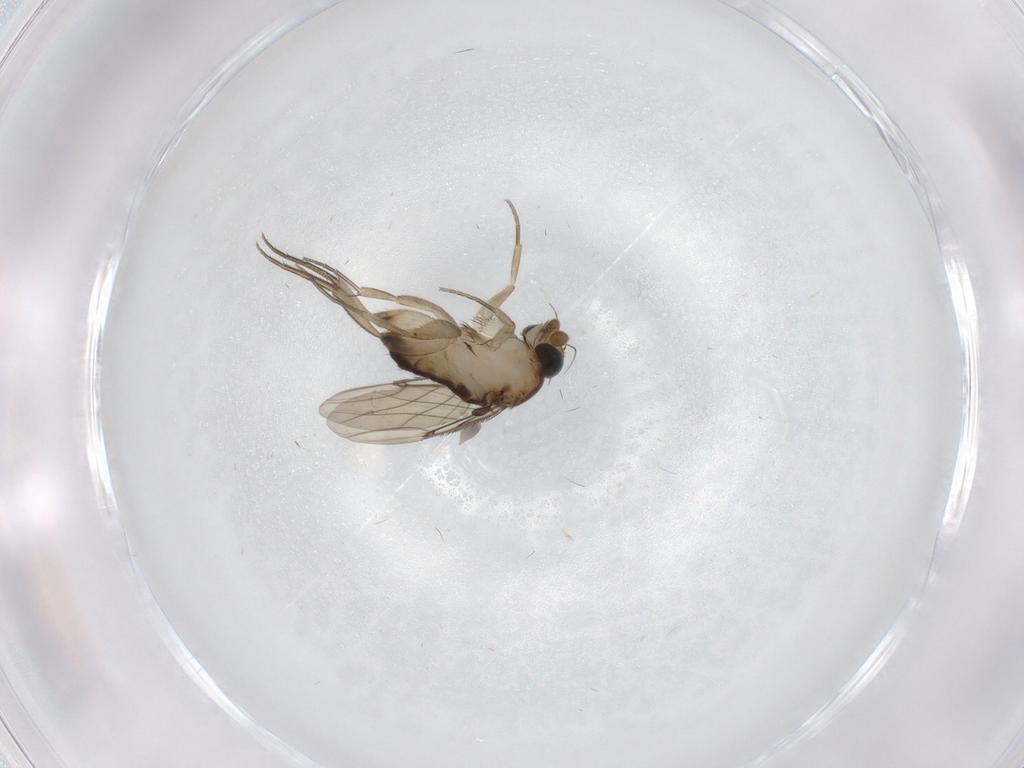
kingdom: Animalia
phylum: Arthropoda
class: Insecta
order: Diptera
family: Phoridae
